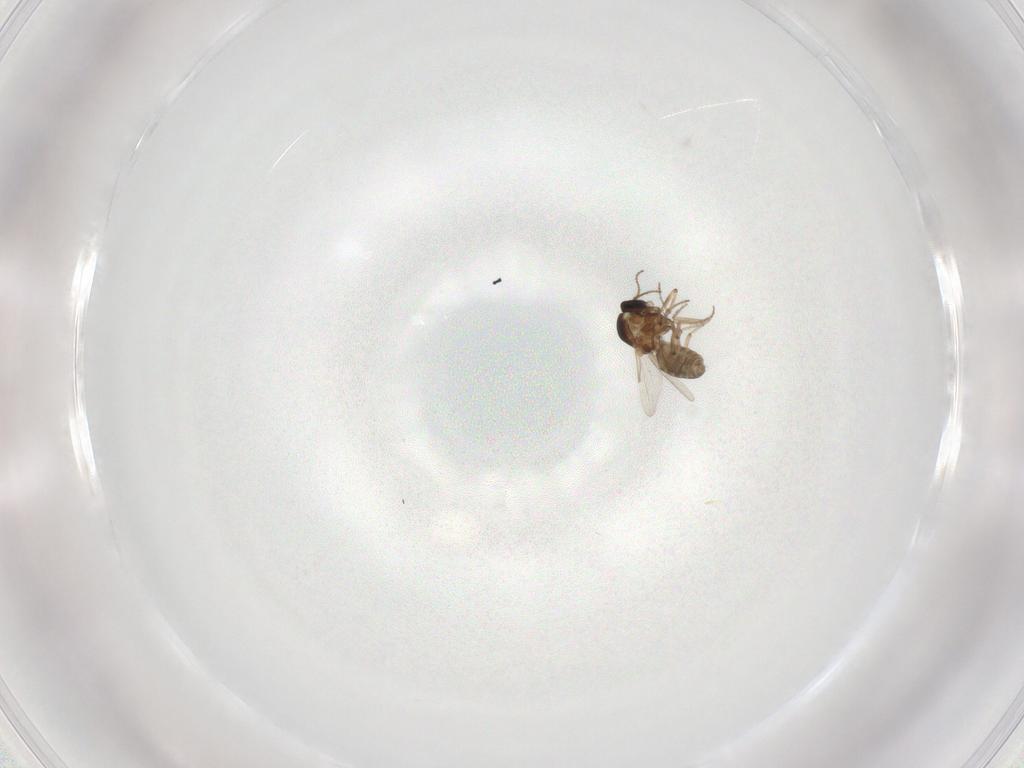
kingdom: Animalia
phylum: Arthropoda
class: Insecta
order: Diptera
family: Ceratopogonidae
